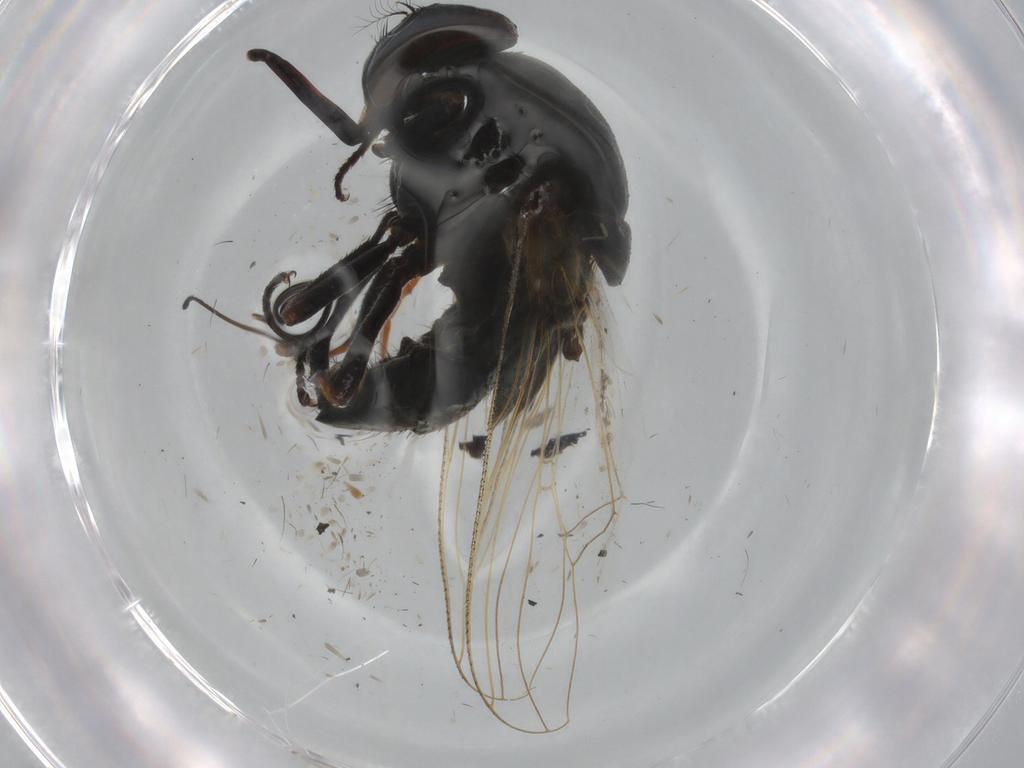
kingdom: Animalia
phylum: Arthropoda
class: Insecta
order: Diptera
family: Muscidae
